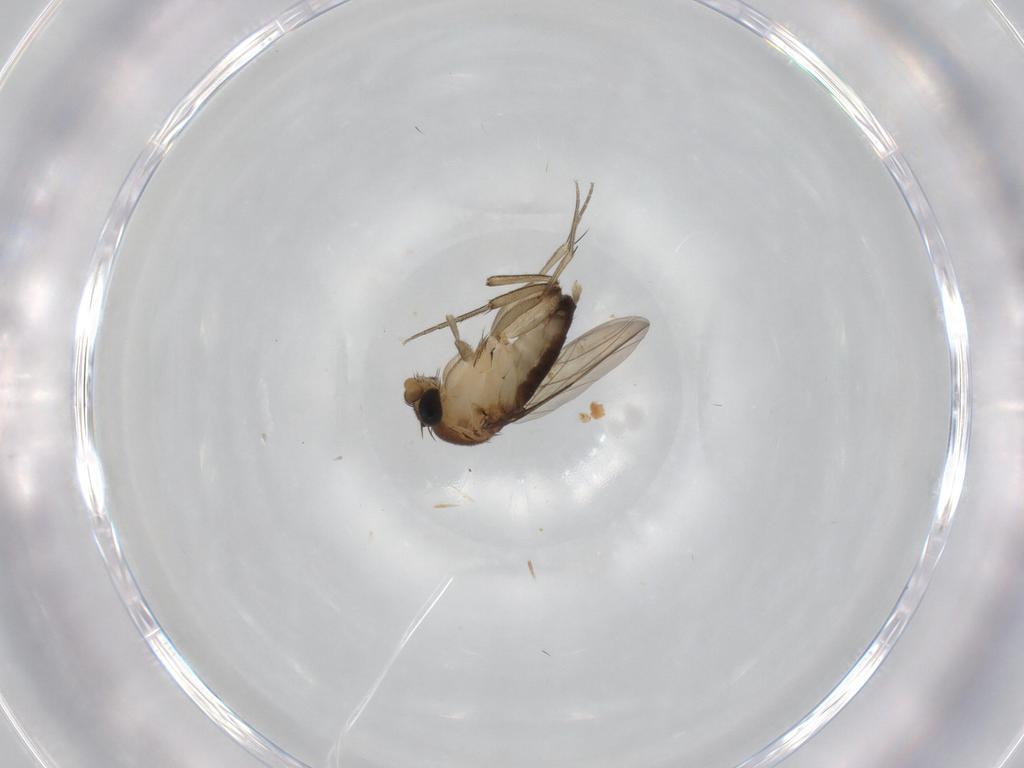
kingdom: Animalia
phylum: Arthropoda
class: Insecta
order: Diptera
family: Phoridae
